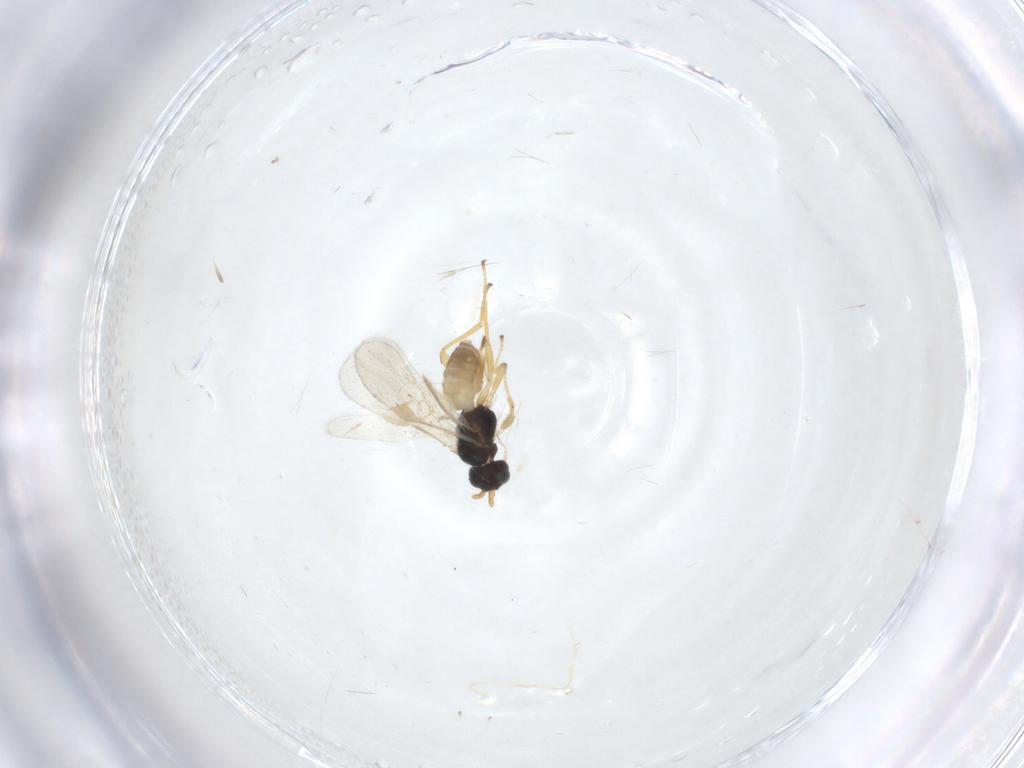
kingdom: Animalia
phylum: Arthropoda
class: Insecta
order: Hymenoptera
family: Braconidae
